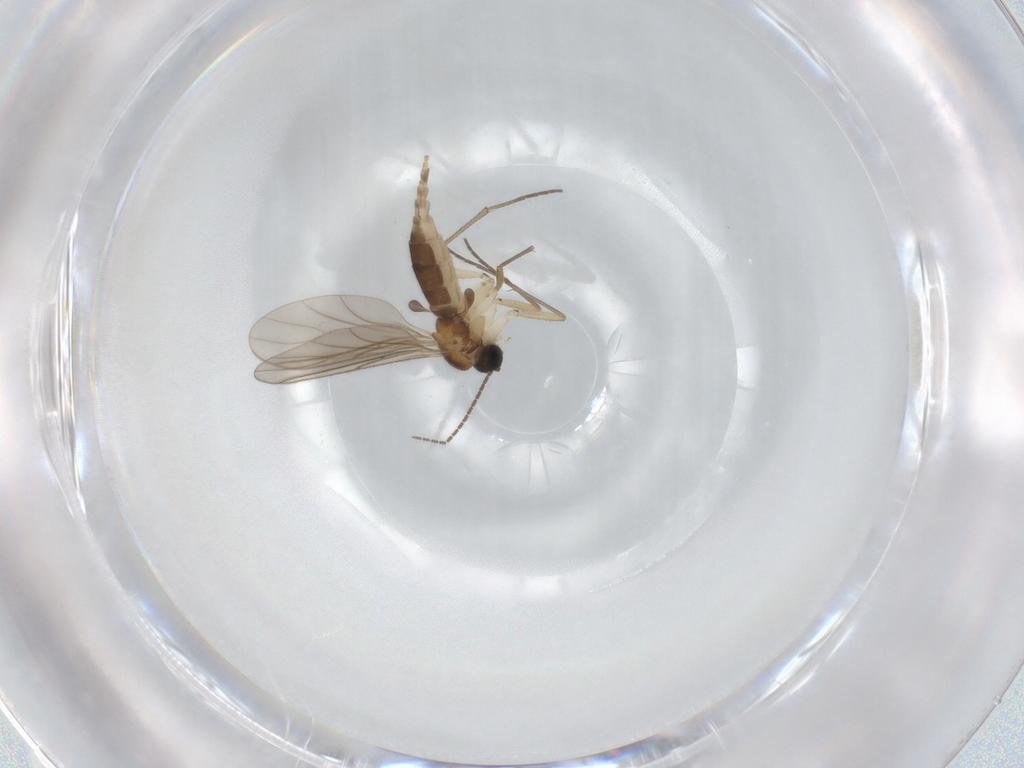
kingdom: Animalia
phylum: Arthropoda
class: Insecta
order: Diptera
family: Sciaridae
